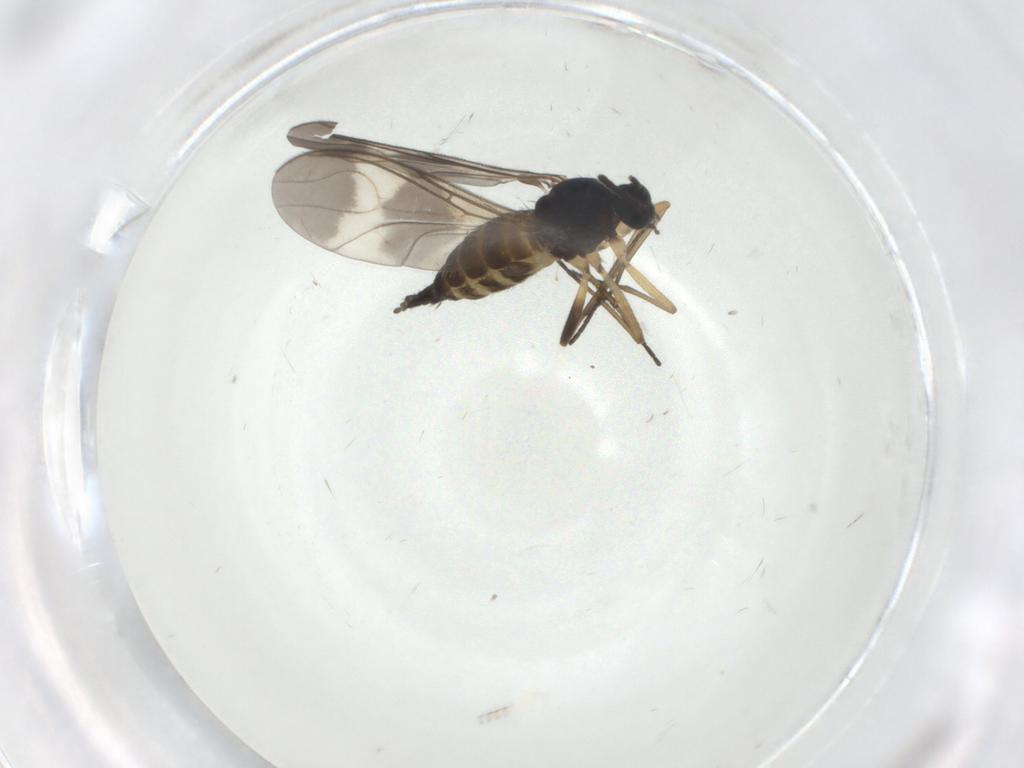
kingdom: Animalia
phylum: Arthropoda
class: Insecta
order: Diptera
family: Sciaridae
